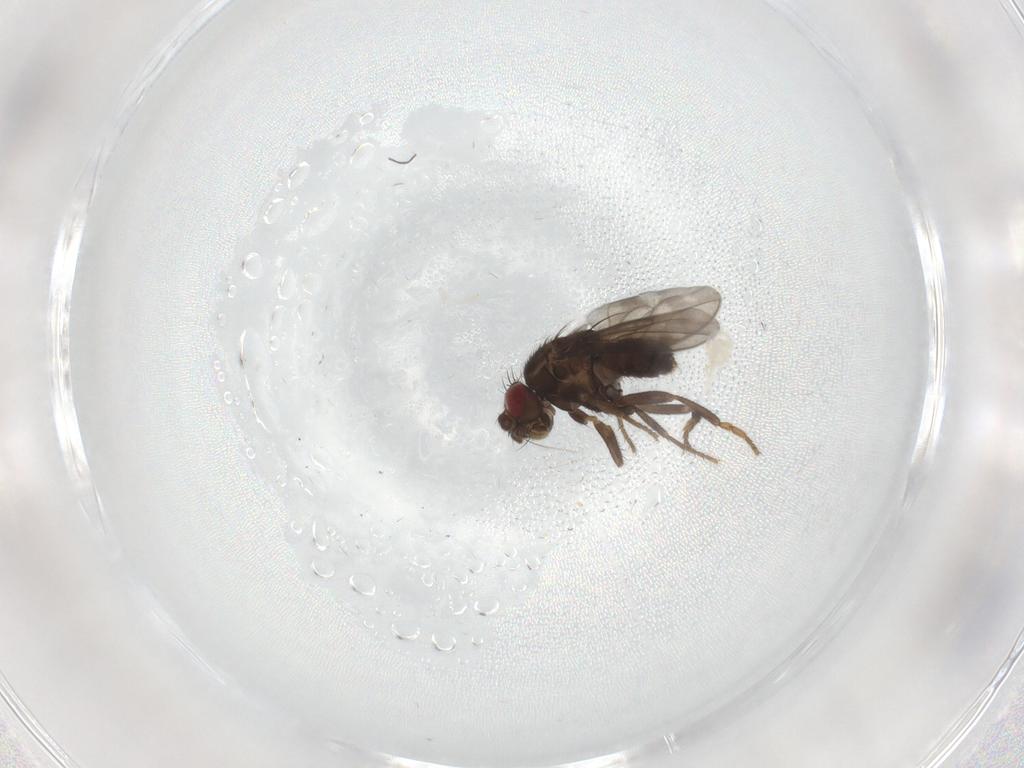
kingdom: Animalia
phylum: Arthropoda
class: Insecta
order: Diptera
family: Sphaeroceridae
